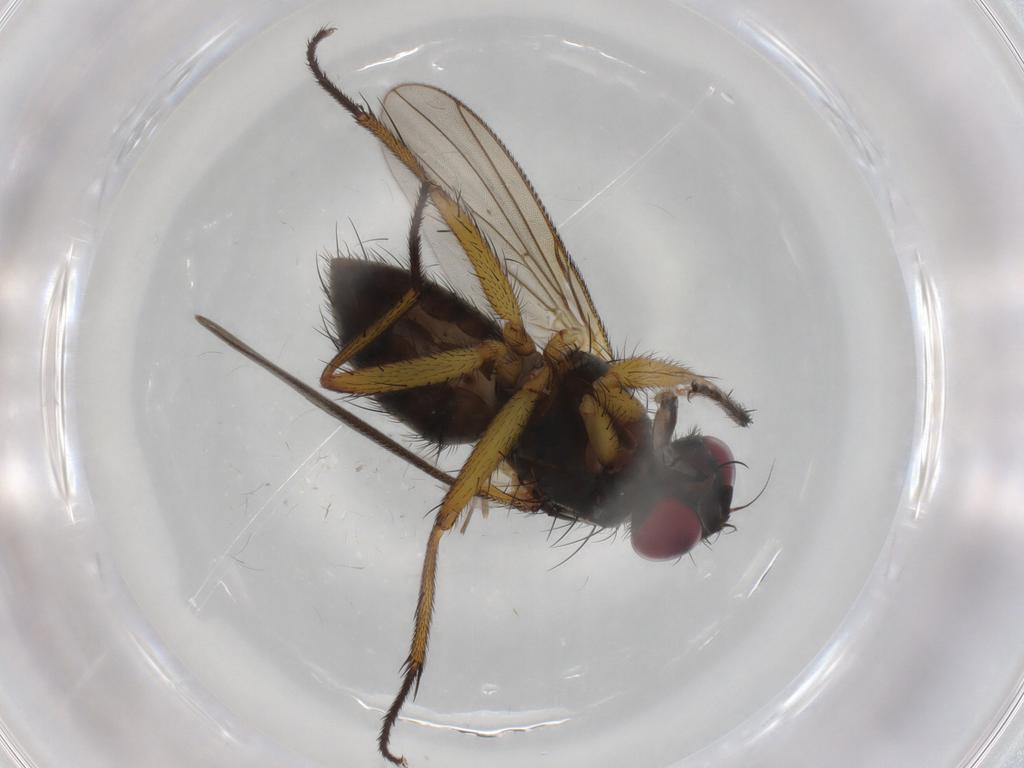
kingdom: Animalia
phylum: Arthropoda
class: Insecta
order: Diptera
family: Muscidae
